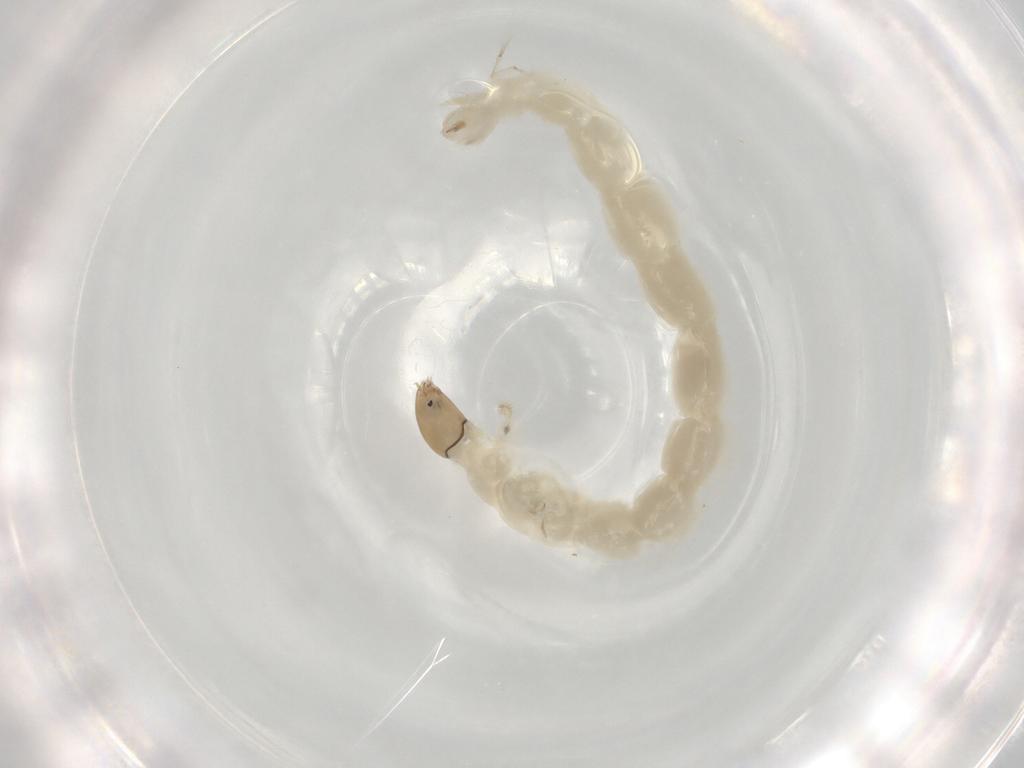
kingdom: Animalia
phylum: Arthropoda
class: Insecta
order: Diptera
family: Chironomidae
